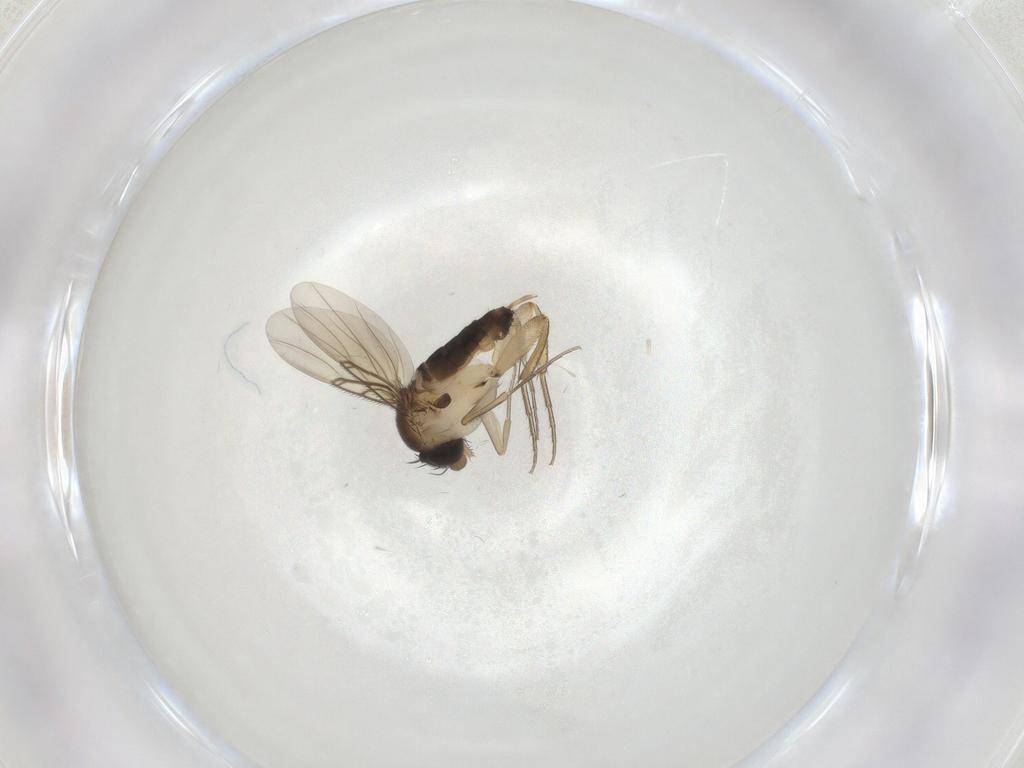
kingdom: Animalia
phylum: Arthropoda
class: Insecta
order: Diptera
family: Phoridae
